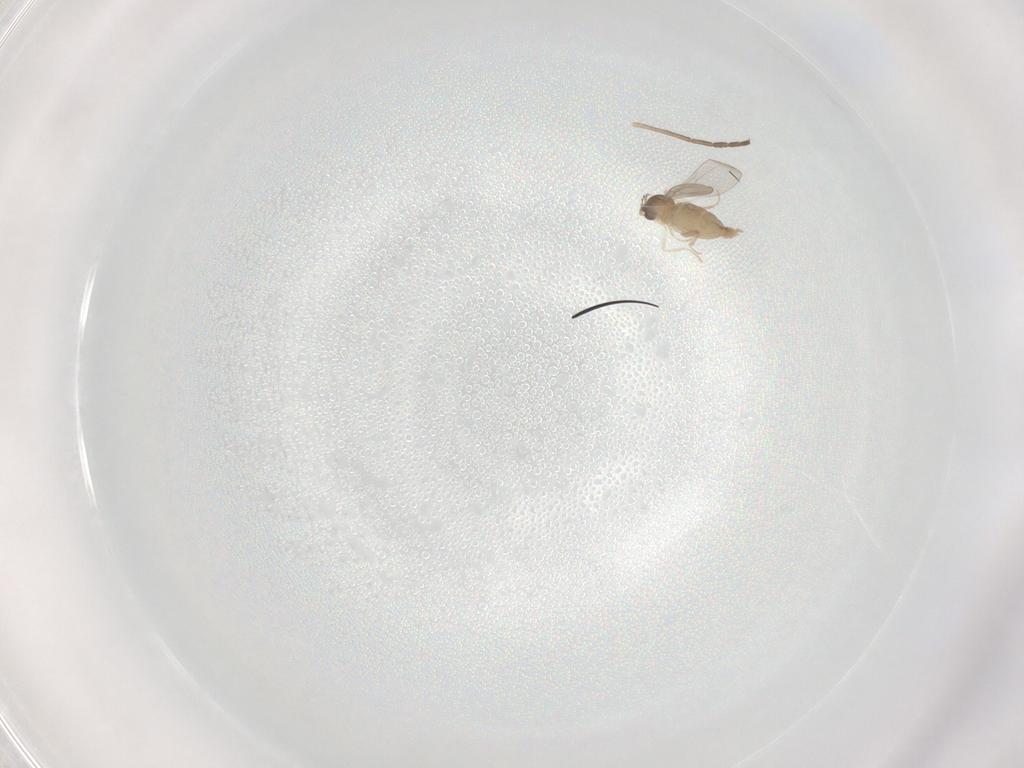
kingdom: Animalia
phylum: Arthropoda
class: Insecta
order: Diptera
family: Cecidomyiidae
